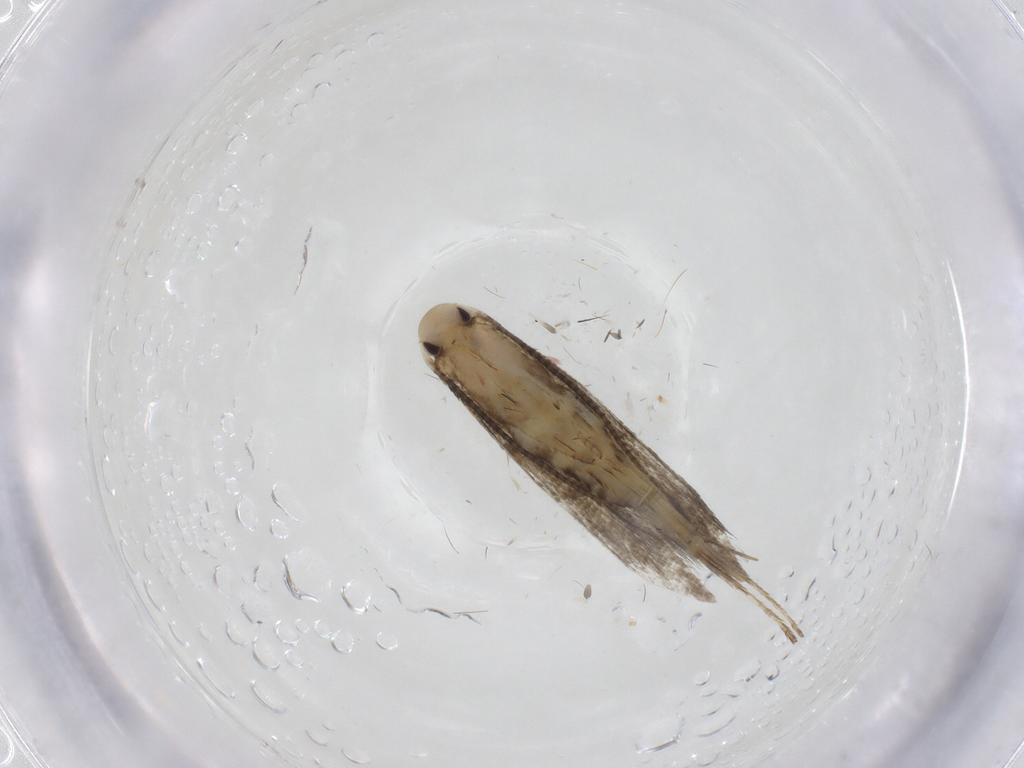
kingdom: Animalia
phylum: Arthropoda
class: Insecta
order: Lepidoptera
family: Stathmopodidae
